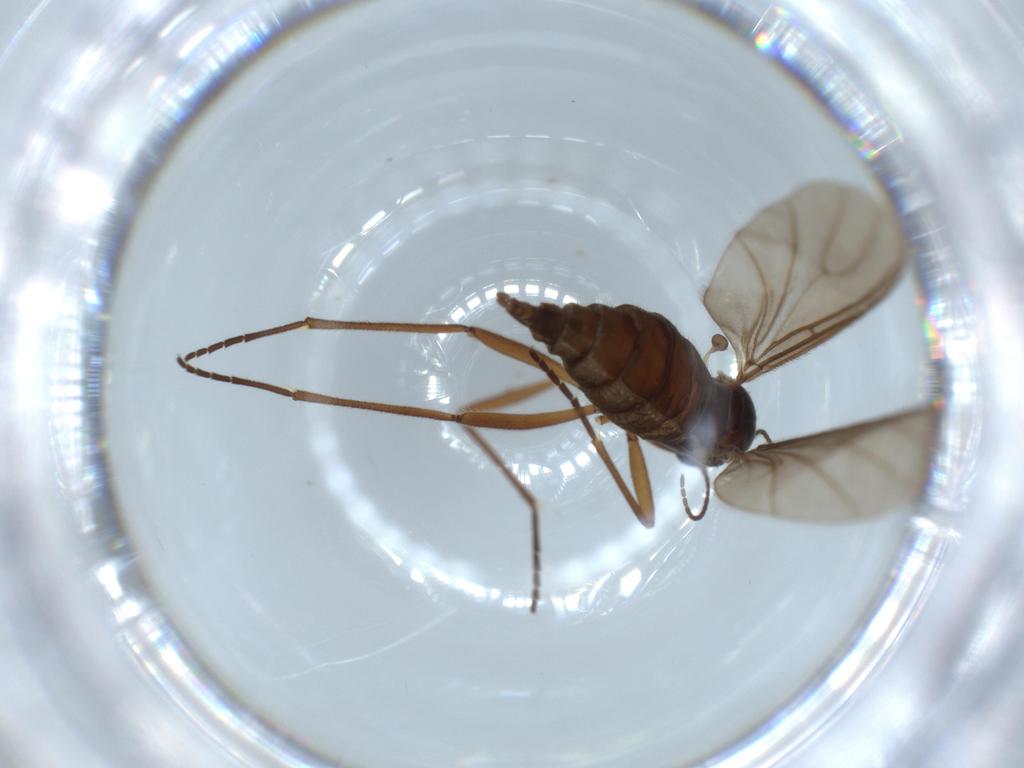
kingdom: Animalia
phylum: Arthropoda
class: Insecta
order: Diptera
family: Sciaridae
